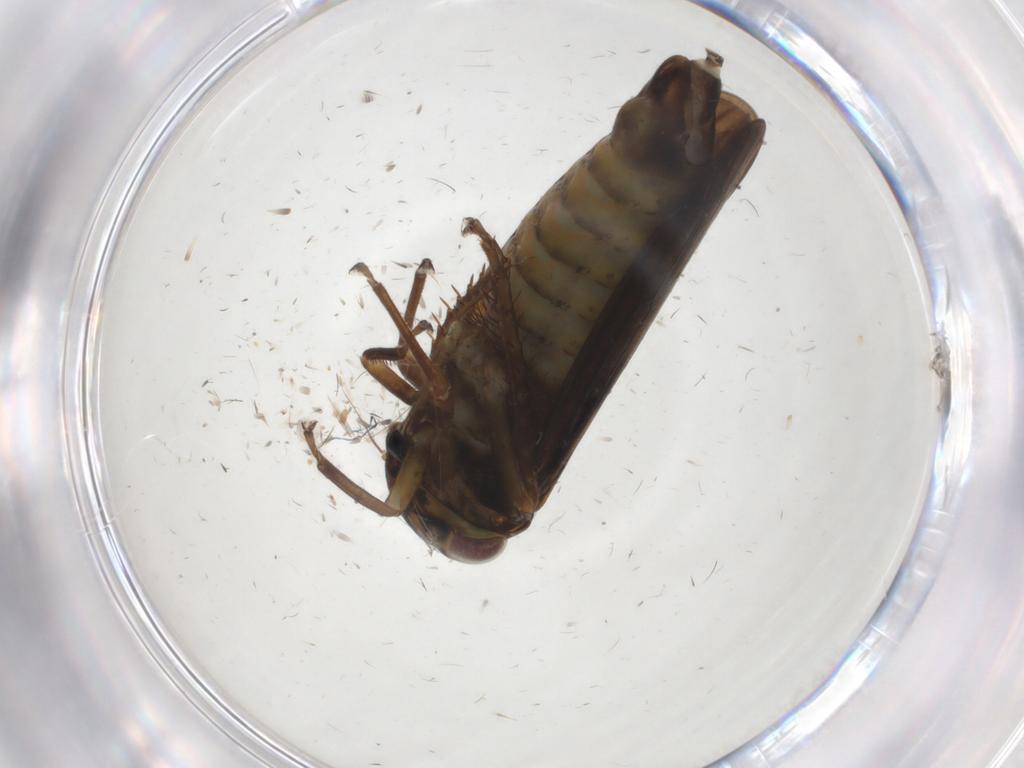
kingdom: Animalia
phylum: Arthropoda
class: Insecta
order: Hemiptera
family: Cicadellidae
